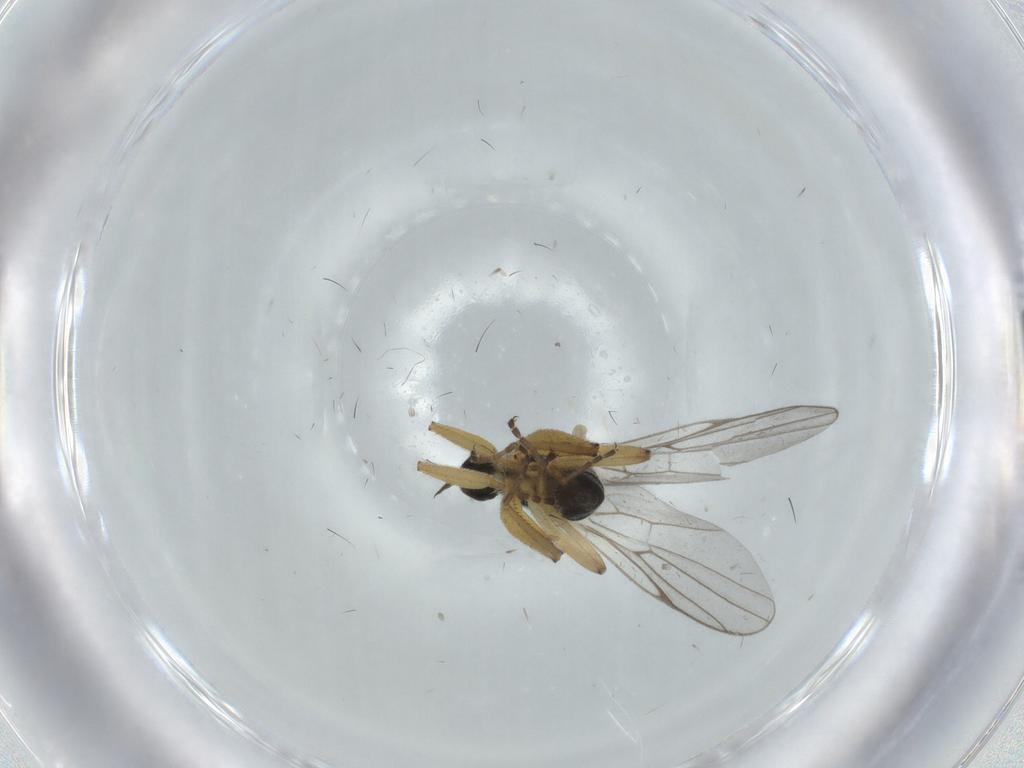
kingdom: Animalia
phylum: Arthropoda
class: Insecta
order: Diptera
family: Hybotidae
